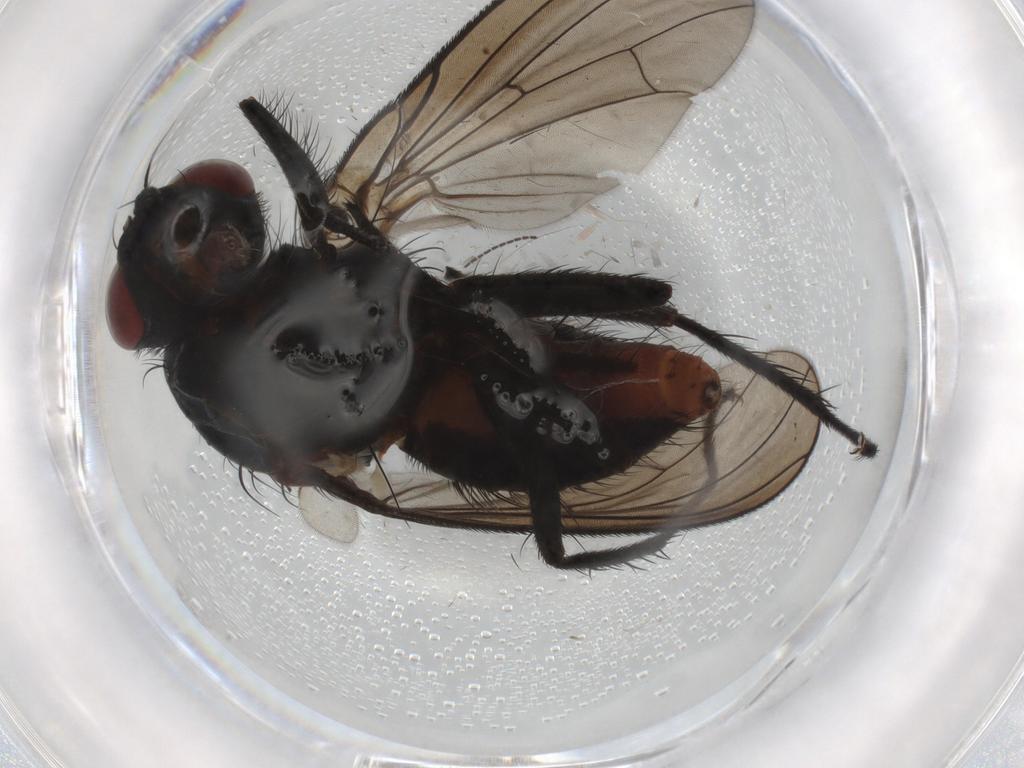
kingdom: Animalia
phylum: Arthropoda
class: Insecta
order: Diptera
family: Anthomyiidae
